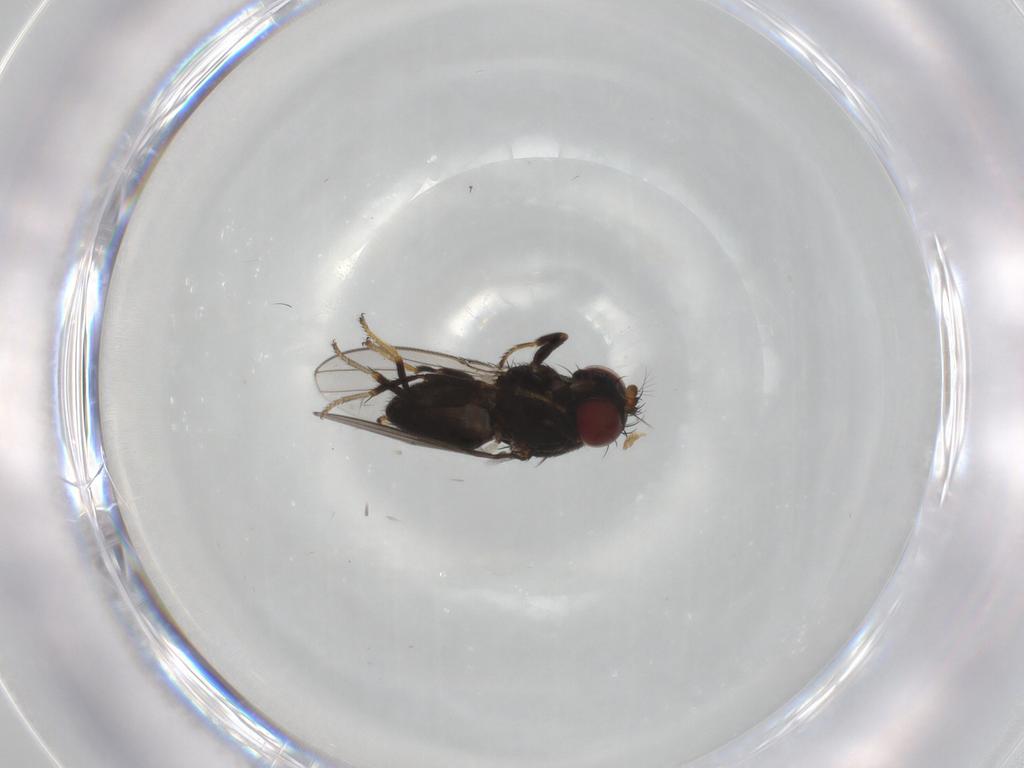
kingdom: Animalia
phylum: Arthropoda
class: Insecta
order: Diptera
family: Ephydridae
